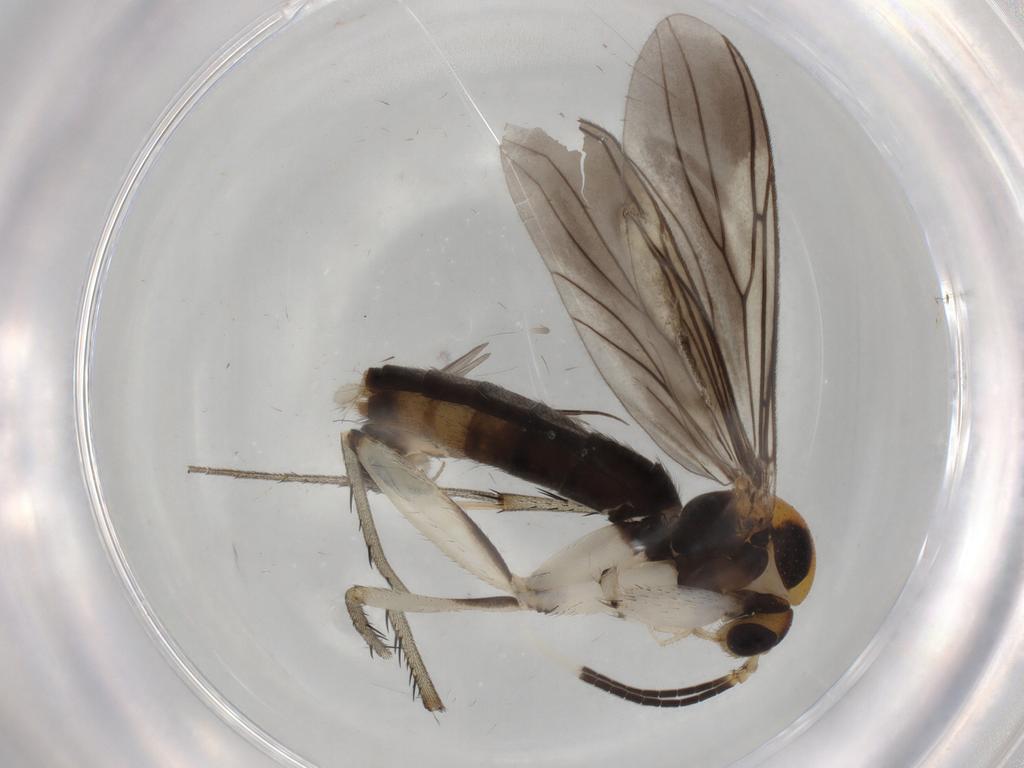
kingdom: Animalia
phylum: Arthropoda
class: Insecta
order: Diptera
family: Mycetophilidae
